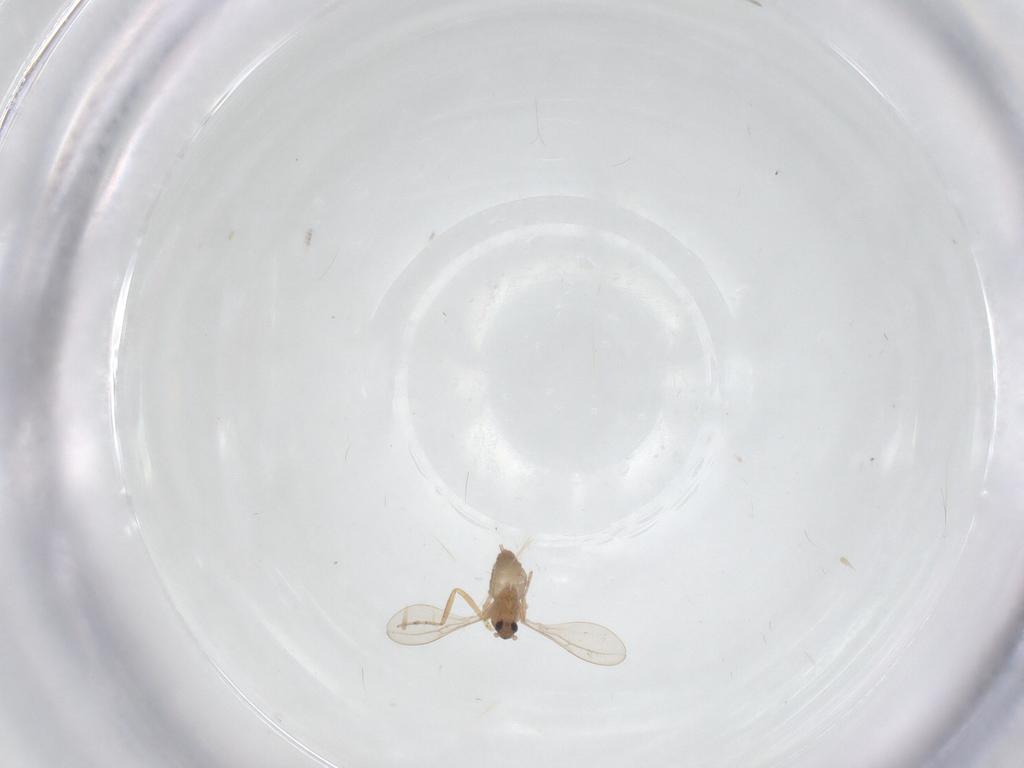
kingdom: Animalia
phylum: Arthropoda
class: Insecta
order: Diptera
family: Cecidomyiidae
